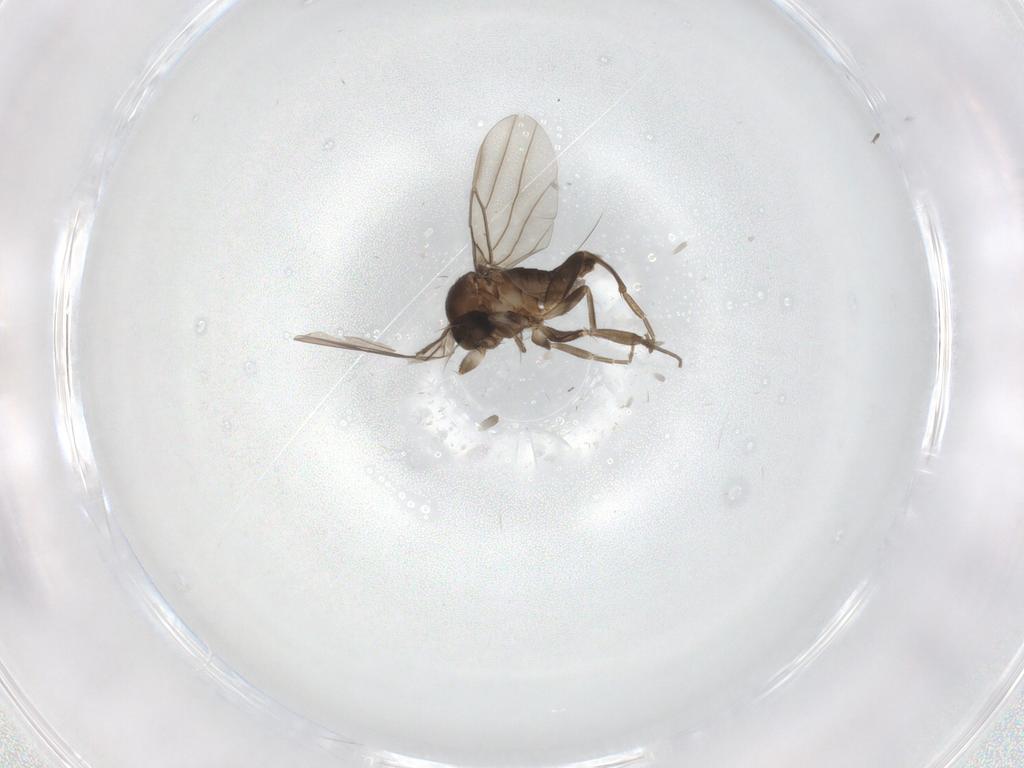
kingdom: Animalia
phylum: Arthropoda
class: Insecta
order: Diptera
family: Phoridae
